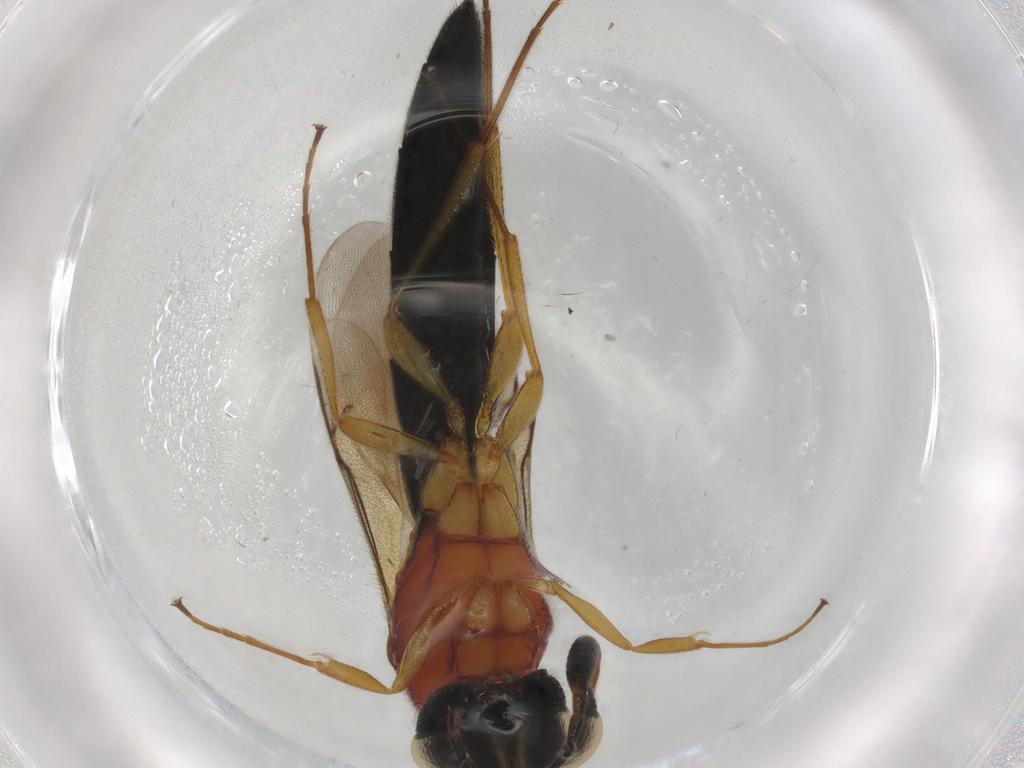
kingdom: Animalia
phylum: Arthropoda
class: Insecta
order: Hymenoptera
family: Scelionidae
